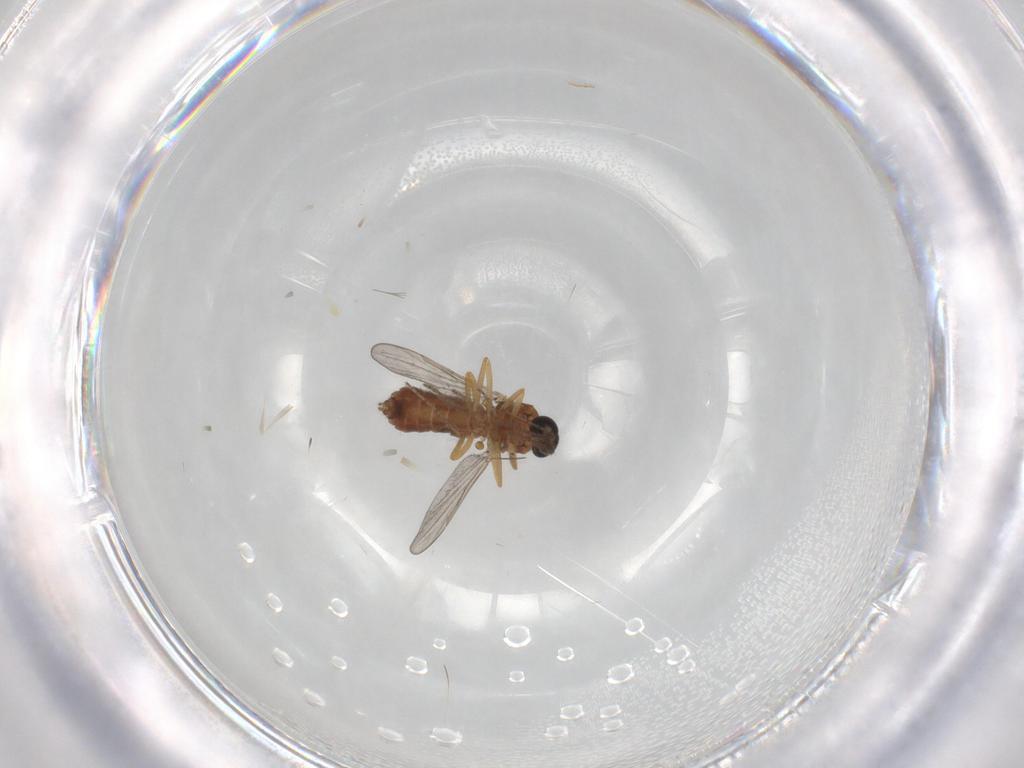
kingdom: Animalia
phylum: Arthropoda
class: Insecta
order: Diptera
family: Ceratopogonidae
